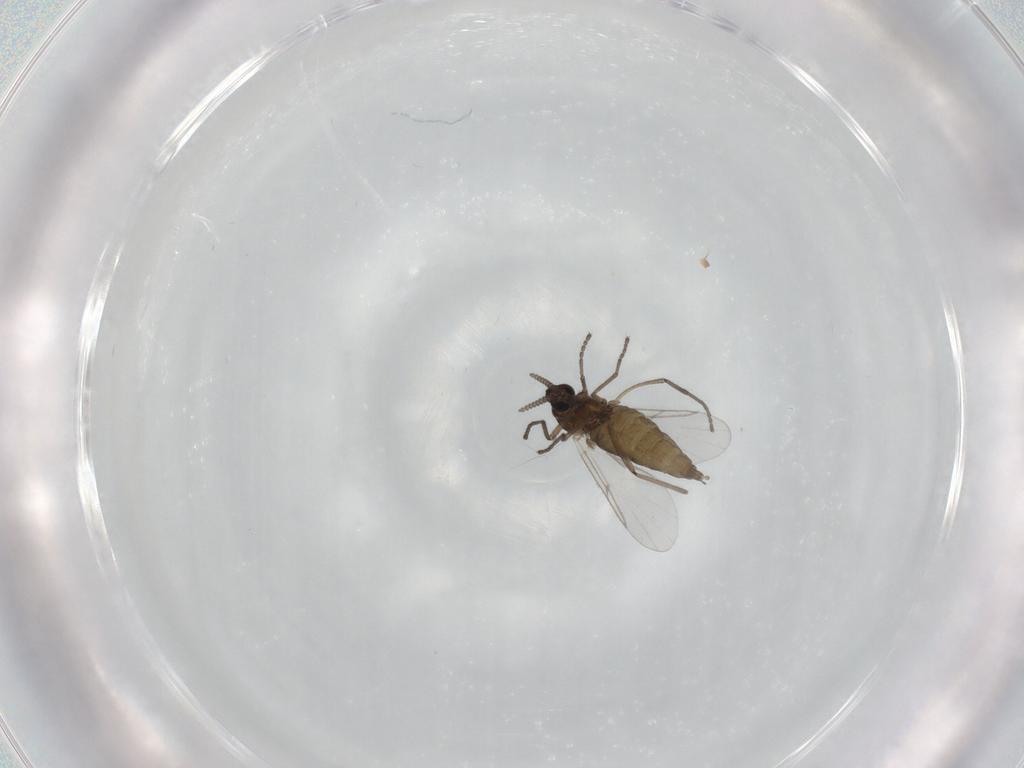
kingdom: Animalia
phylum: Arthropoda
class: Insecta
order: Diptera
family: Cecidomyiidae
